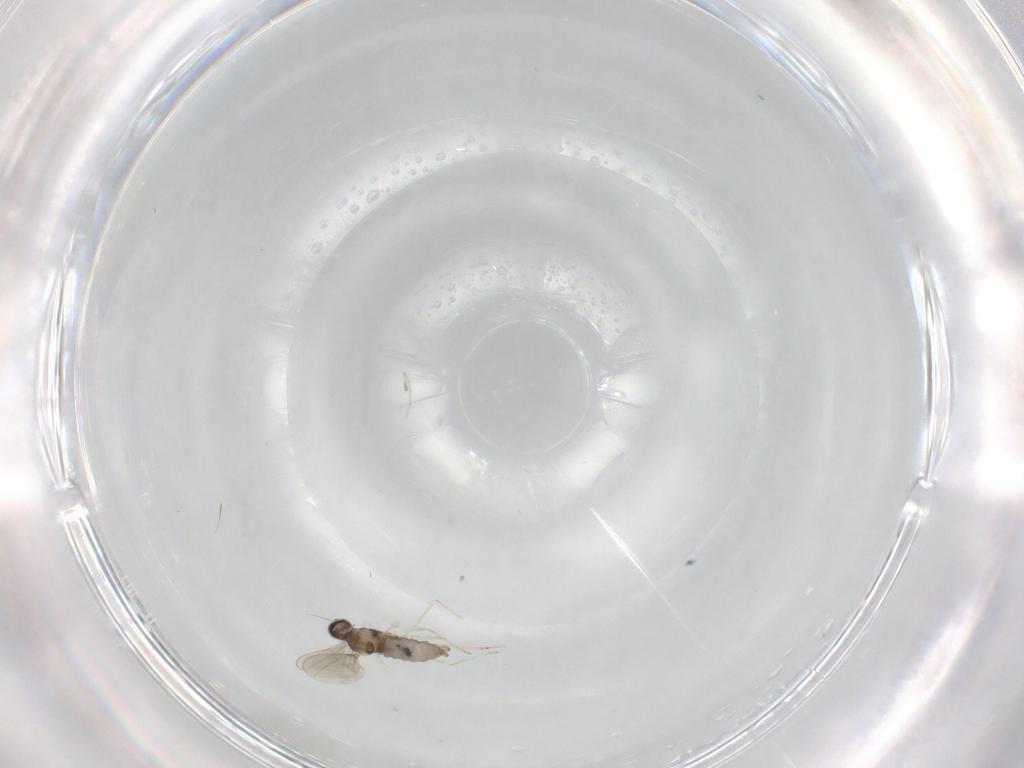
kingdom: Animalia
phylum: Arthropoda
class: Insecta
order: Diptera
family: Cecidomyiidae
